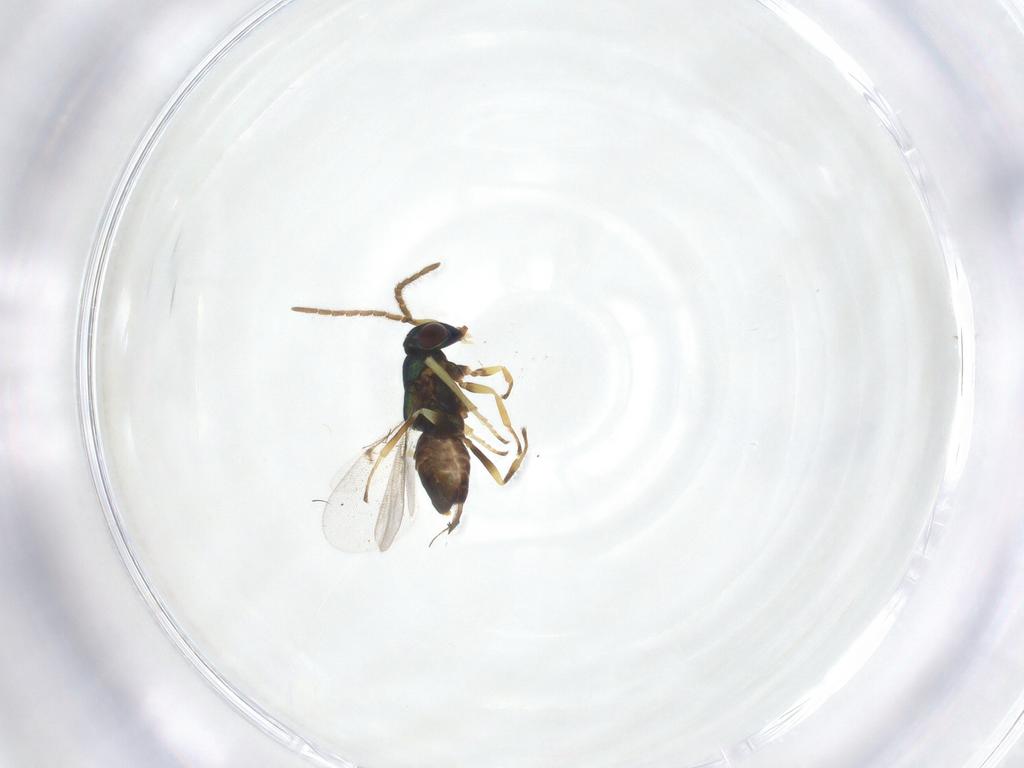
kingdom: Animalia
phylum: Arthropoda
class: Insecta
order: Hymenoptera
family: Encyrtidae
